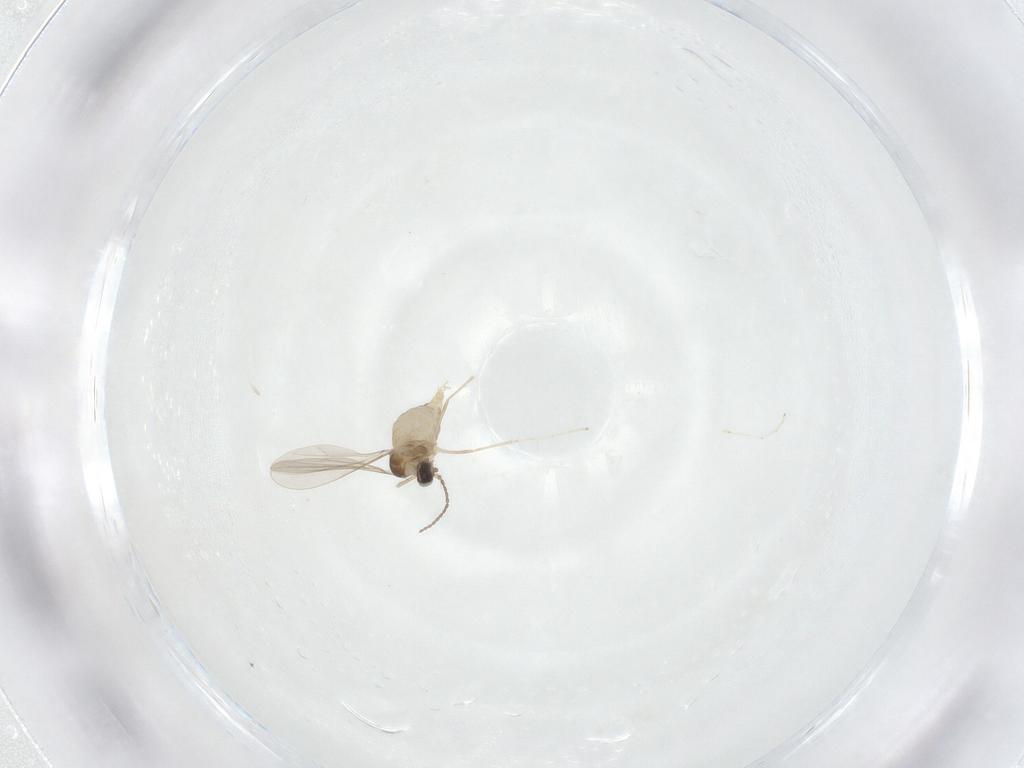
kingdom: Animalia
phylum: Arthropoda
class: Insecta
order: Diptera
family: Cecidomyiidae
